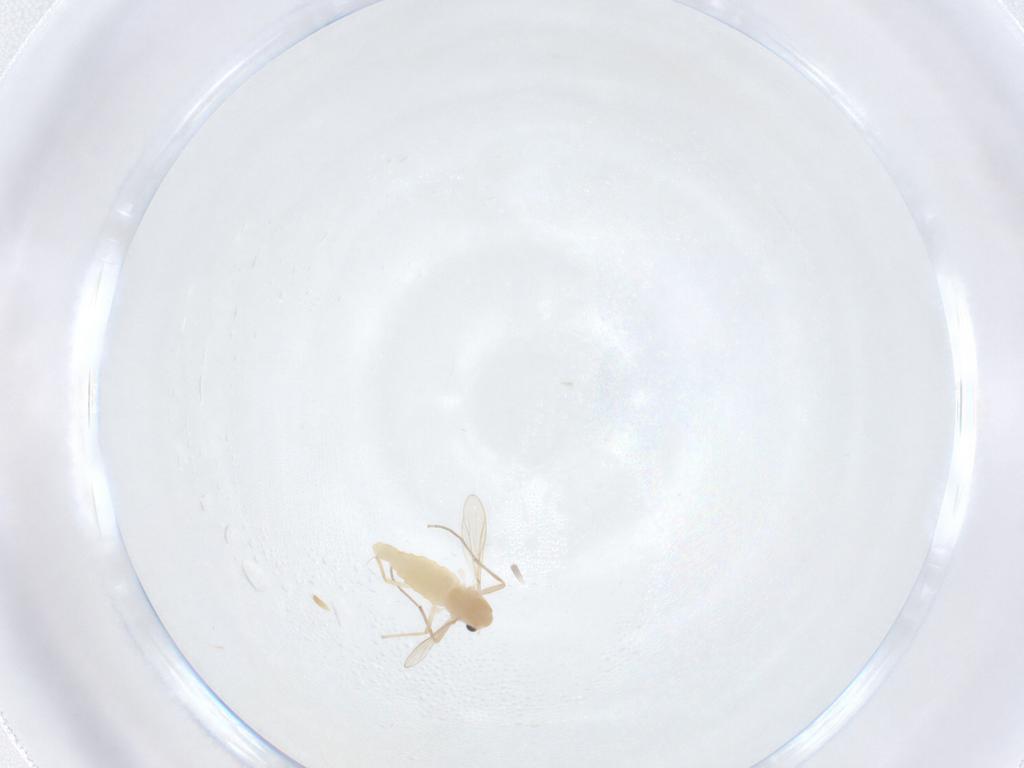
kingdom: Animalia
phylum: Arthropoda
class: Insecta
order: Diptera
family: Chironomidae
